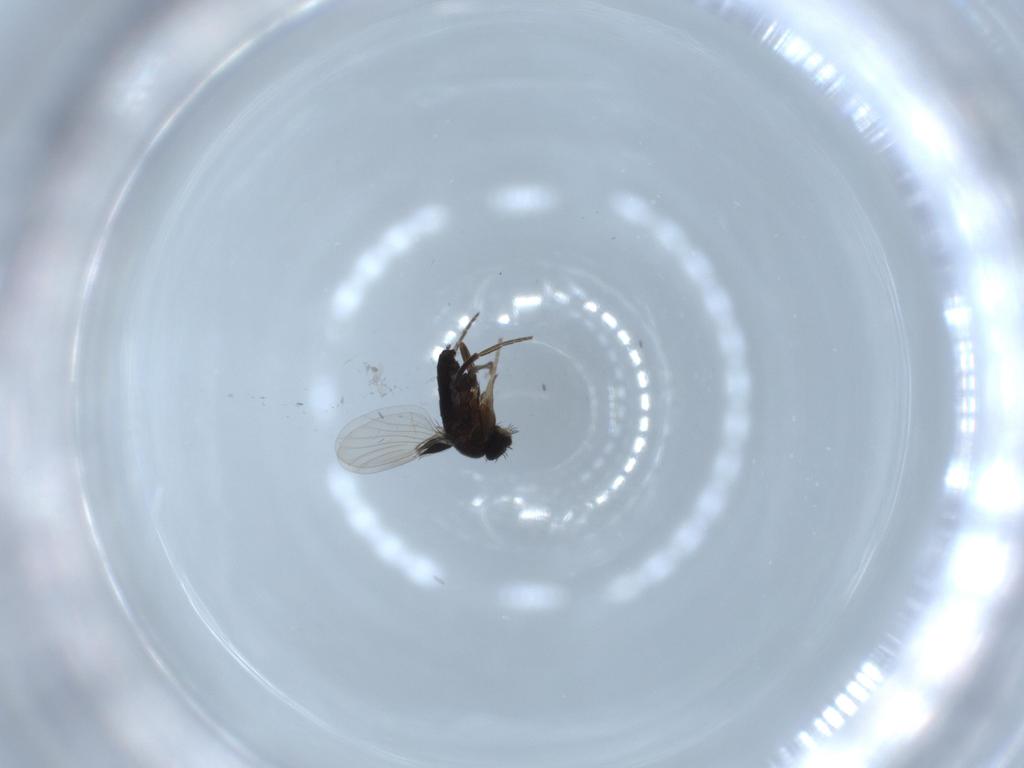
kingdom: Animalia
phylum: Arthropoda
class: Insecta
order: Diptera
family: Phoridae
